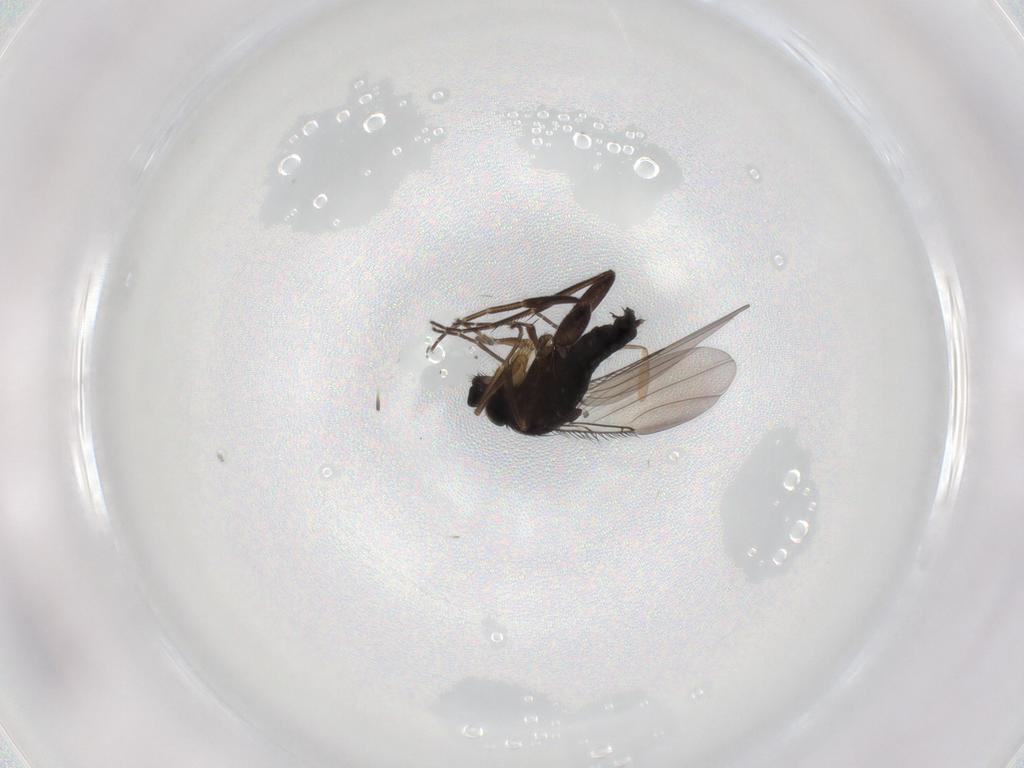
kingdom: Animalia
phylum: Arthropoda
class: Insecta
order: Diptera
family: Phoridae
